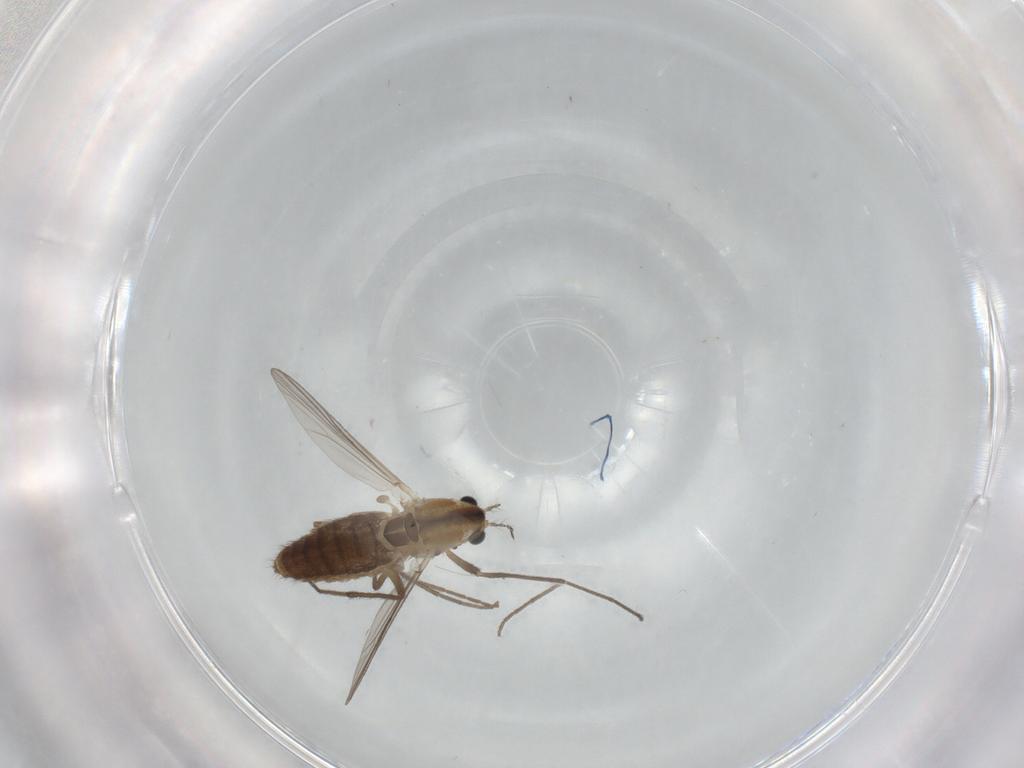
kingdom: Animalia
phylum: Arthropoda
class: Insecta
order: Diptera
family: Chironomidae
